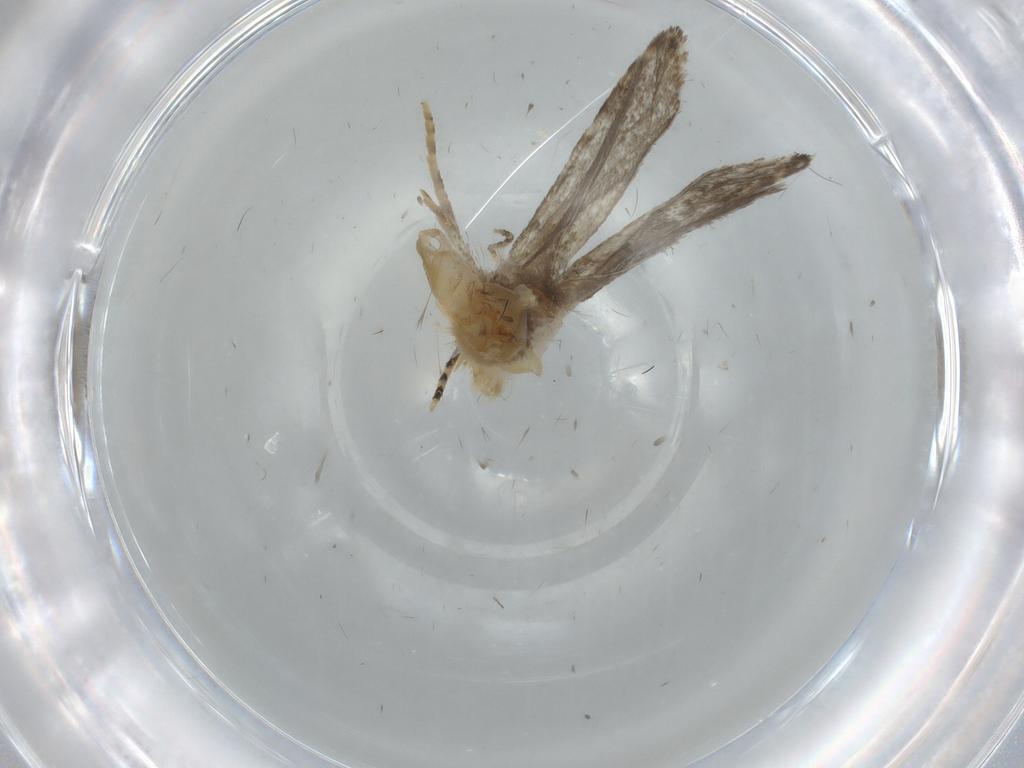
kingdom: Animalia
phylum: Arthropoda
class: Insecta
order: Lepidoptera
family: Tineidae
